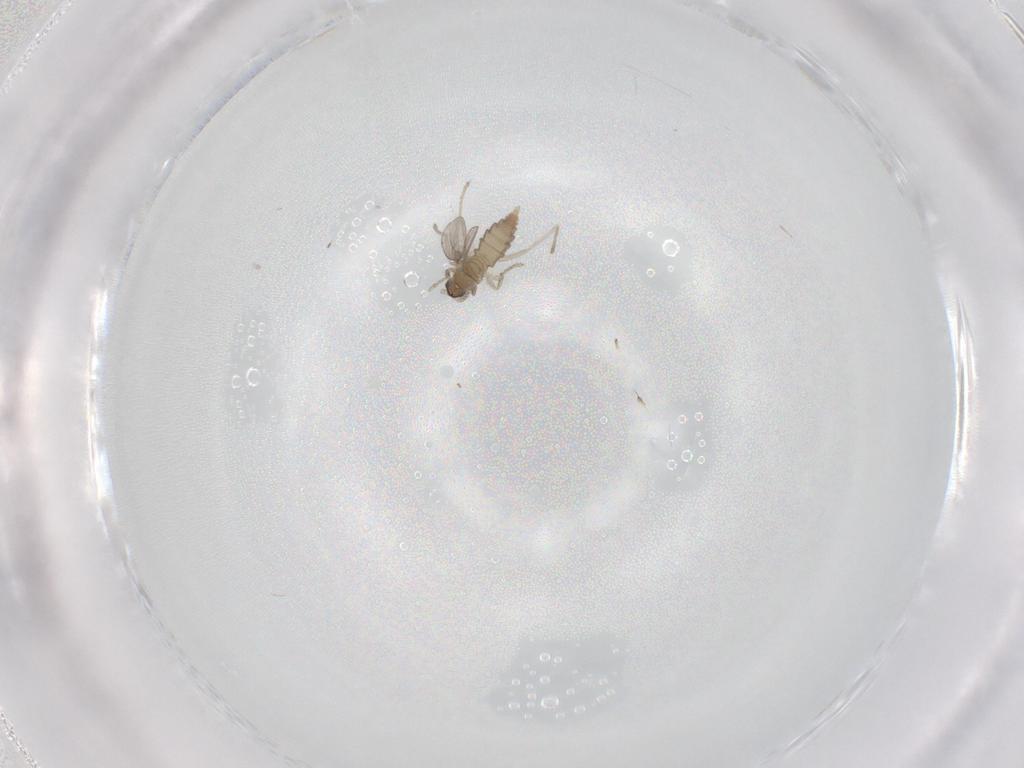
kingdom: Animalia
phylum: Arthropoda
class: Insecta
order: Diptera
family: Cecidomyiidae
